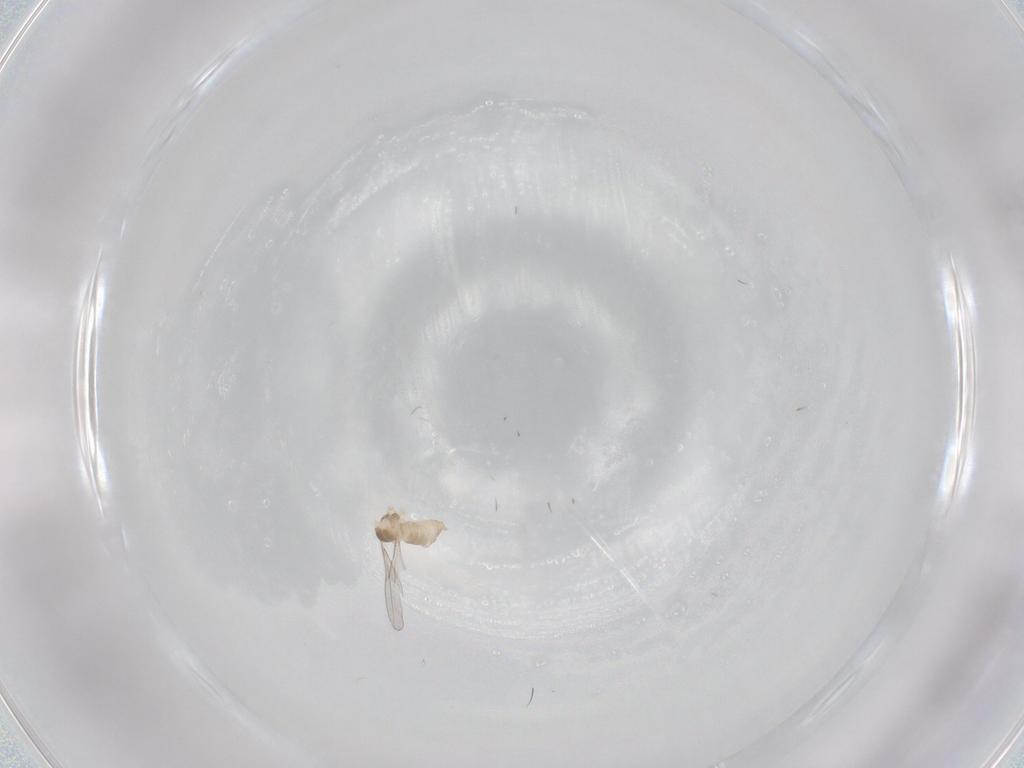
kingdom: Animalia
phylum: Arthropoda
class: Insecta
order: Diptera
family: Cecidomyiidae
